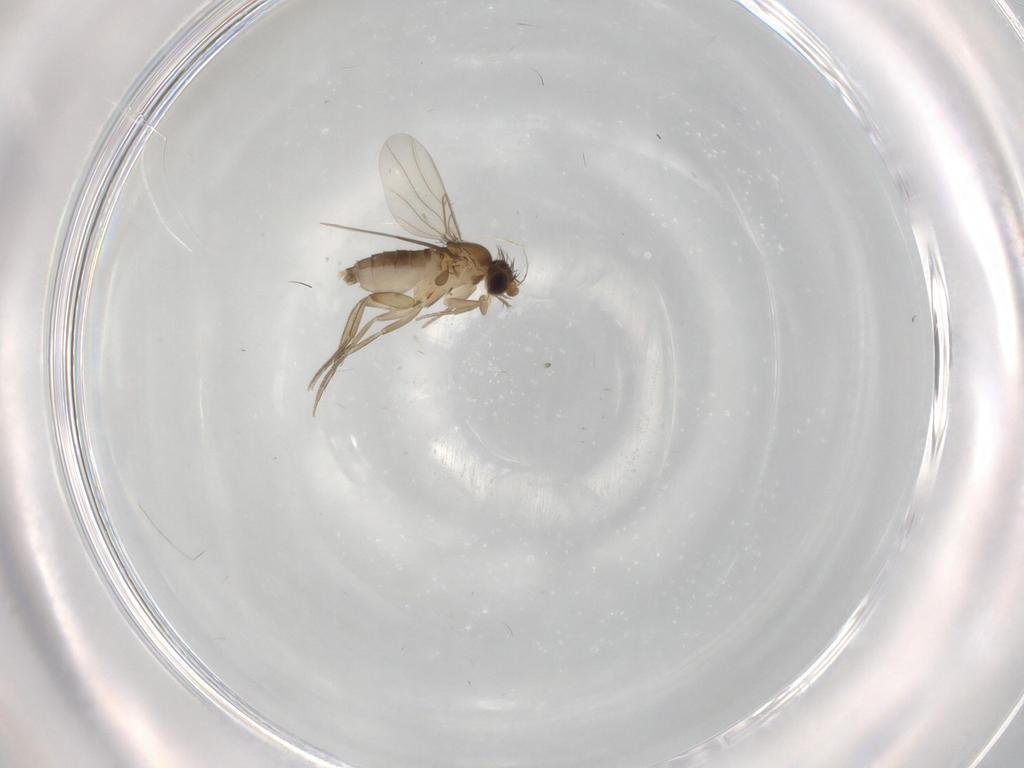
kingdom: Animalia
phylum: Arthropoda
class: Insecta
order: Diptera
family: Phoridae
